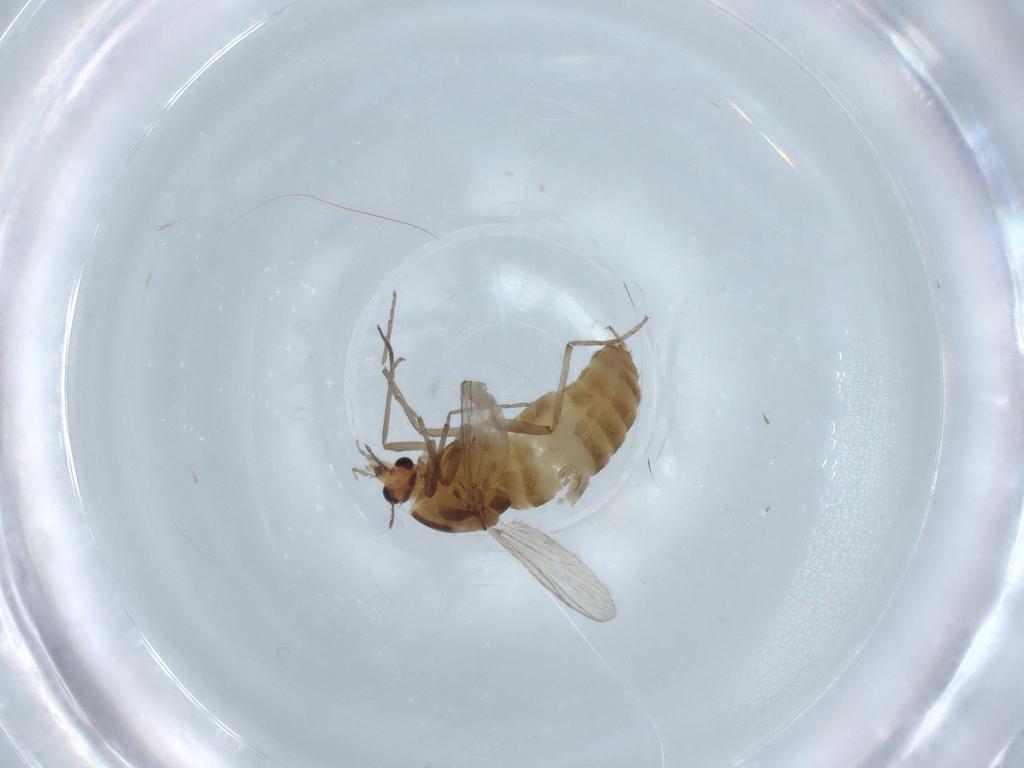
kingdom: Animalia
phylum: Arthropoda
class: Insecta
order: Diptera
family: Chironomidae
